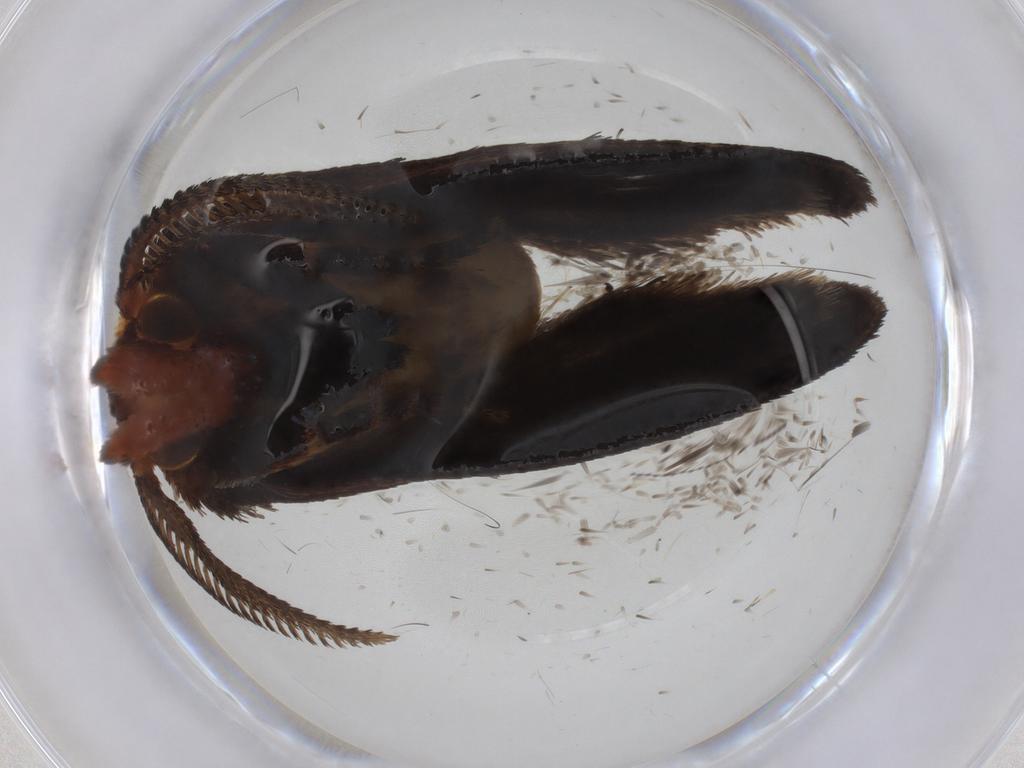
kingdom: Animalia
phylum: Arthropoda
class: Insecta
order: Lepidoptera
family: Limacodidae
